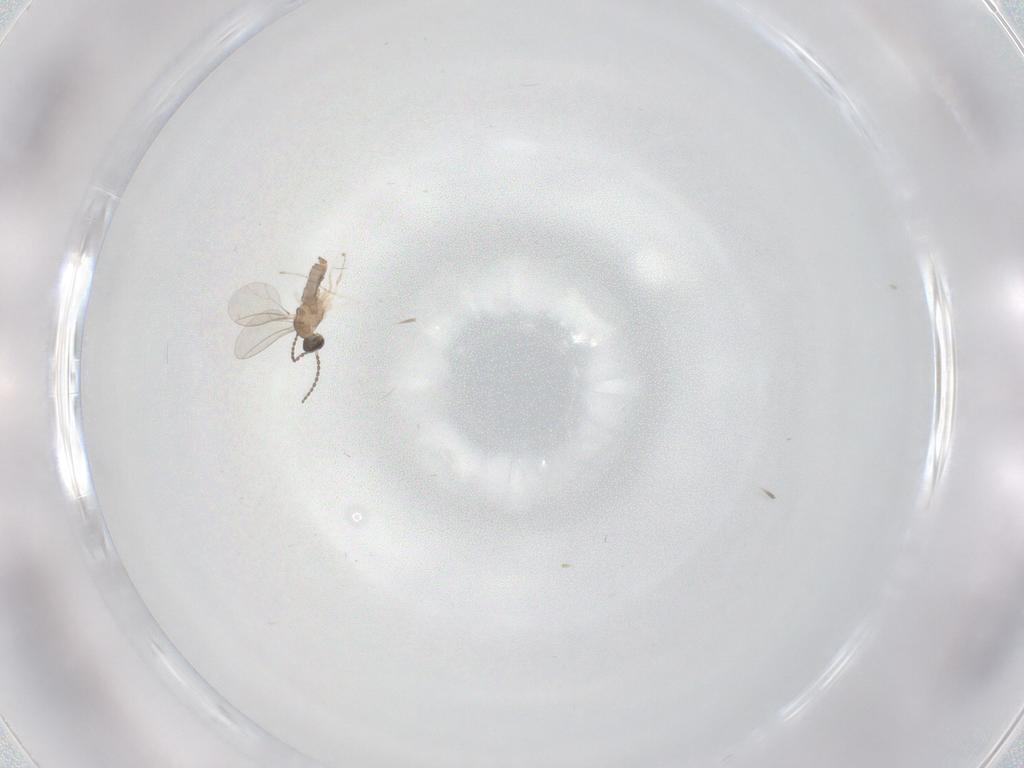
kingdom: Animalia
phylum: Arthropoda
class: Insecta
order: Diptera
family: Cecidomyiidae
